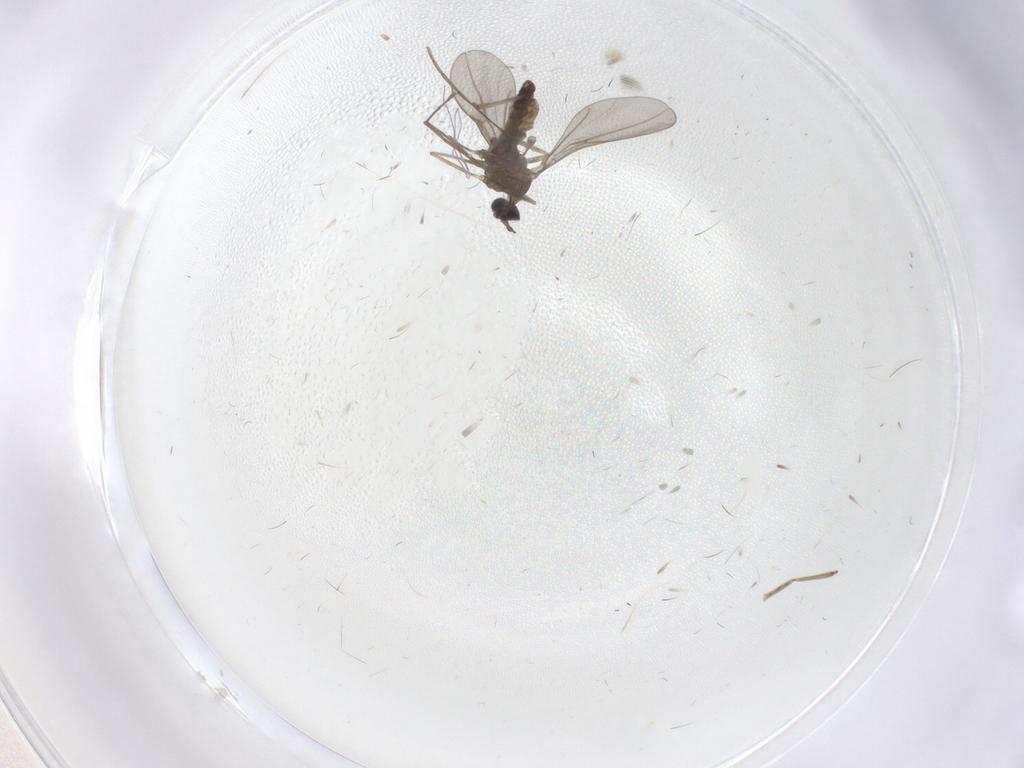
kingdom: Animalia
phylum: Arthropoda
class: Insecta
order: Diptera
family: Cecidomyiidae
